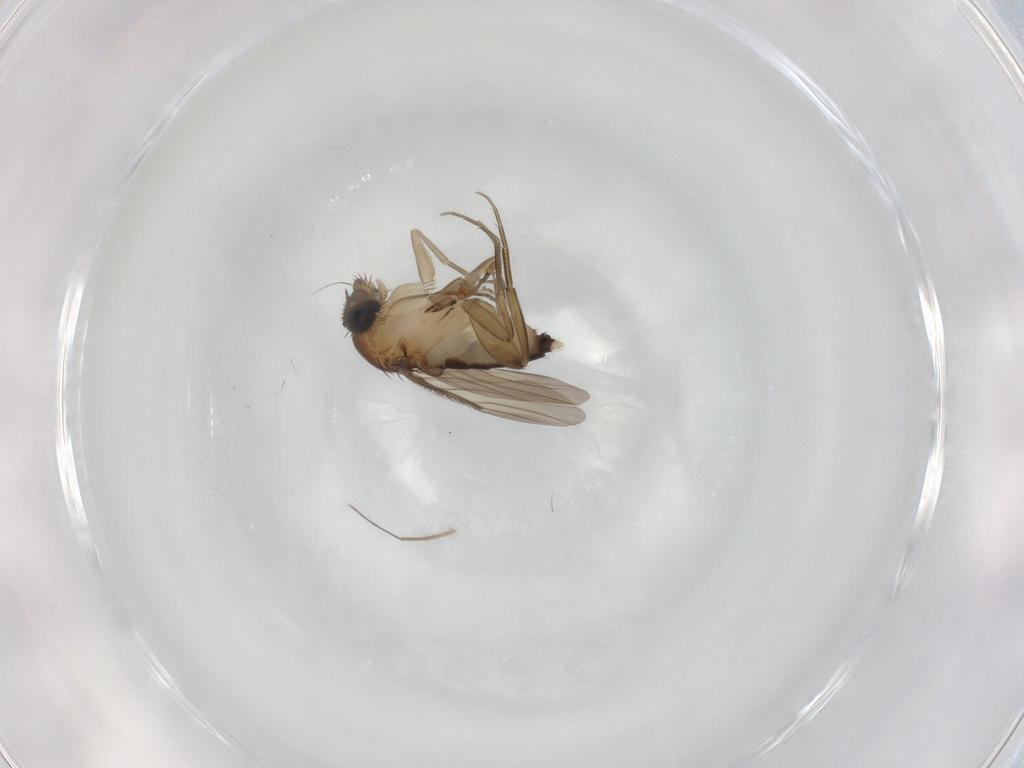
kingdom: Animalia
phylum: Arthropoda
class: Insecta
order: Diptera
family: Phoridae
